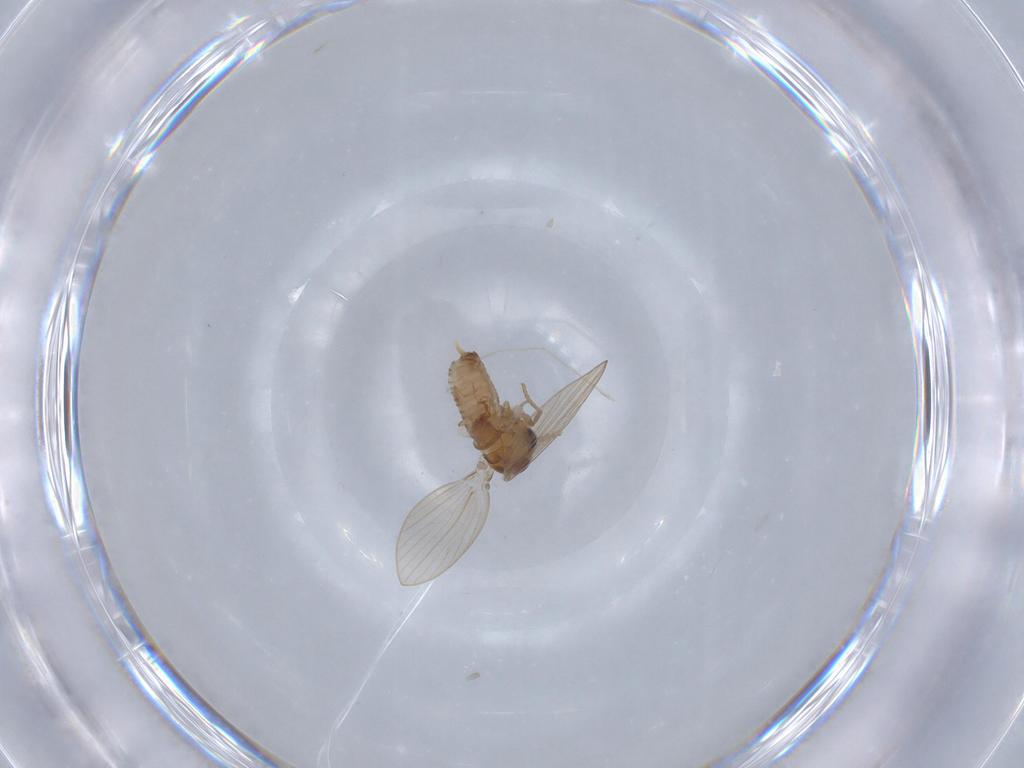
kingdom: Animalia
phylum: Arthropoda
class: Insecta
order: Diptera
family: Psychodidae
